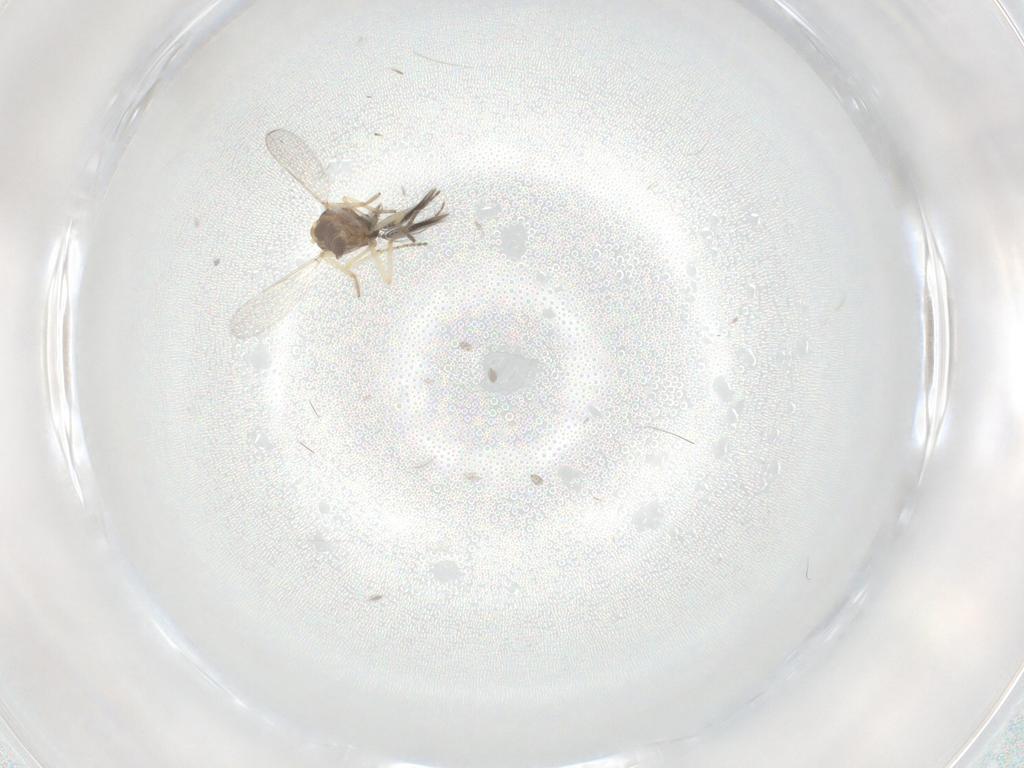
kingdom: Animalia
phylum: Arthropoda
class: Insecta
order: Diptera
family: Ceratopogonidae
